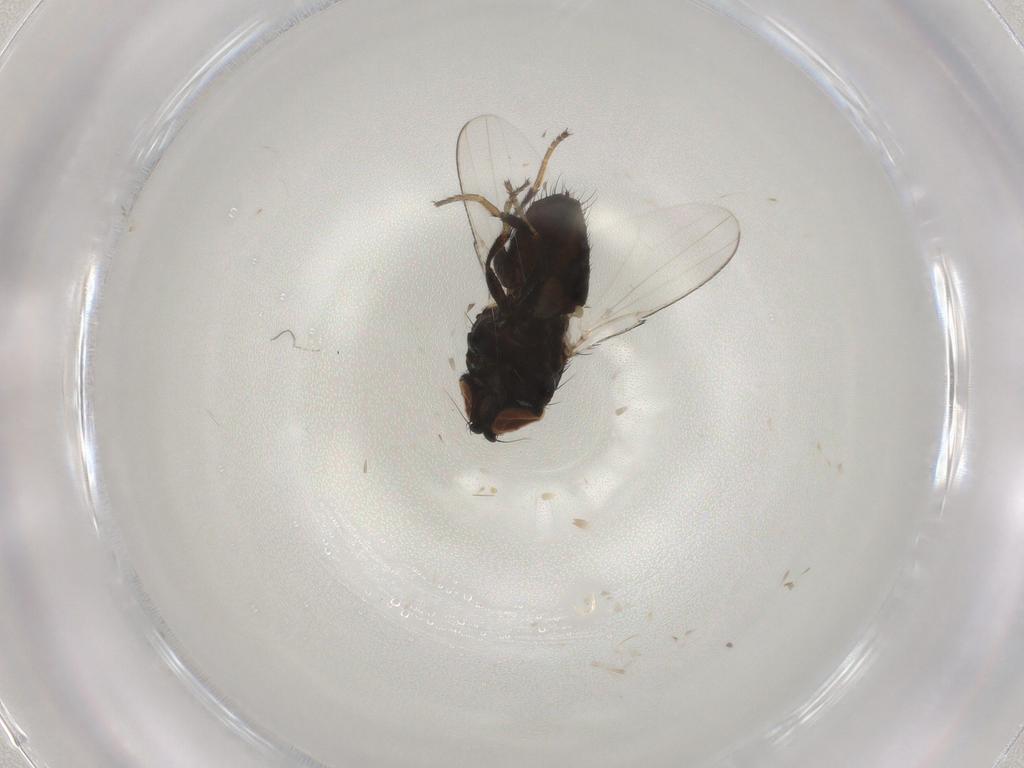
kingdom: Animalia
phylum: Arthropoda
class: Insecta
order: Diptera
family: Milichiidae
